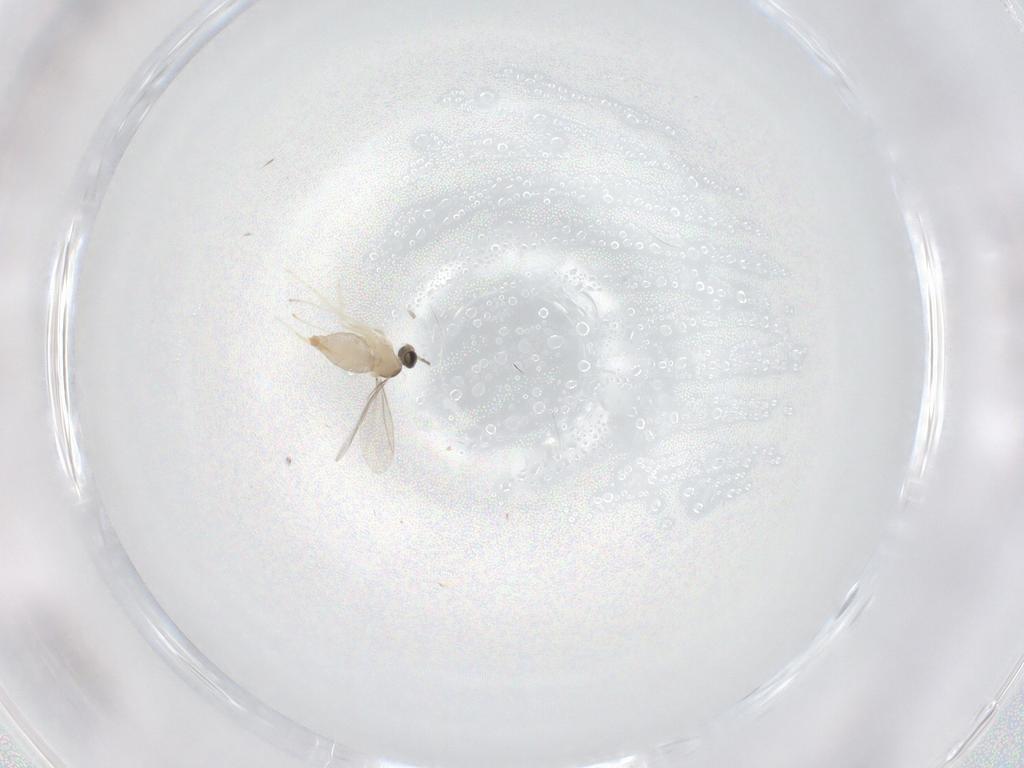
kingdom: Animalia
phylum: Arthropoda
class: Insecta
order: Diptera
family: Cecidomyiidae
